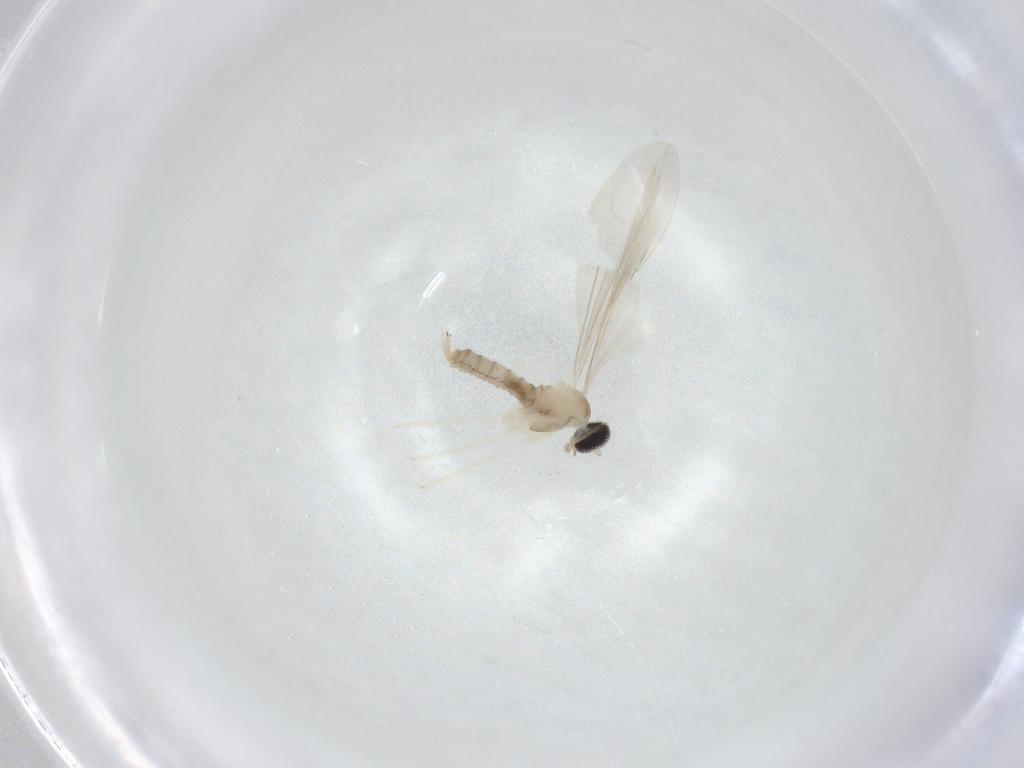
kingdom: Animalia
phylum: Arthropoda
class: Insecta
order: Diptera
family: Cecidomyiidae
